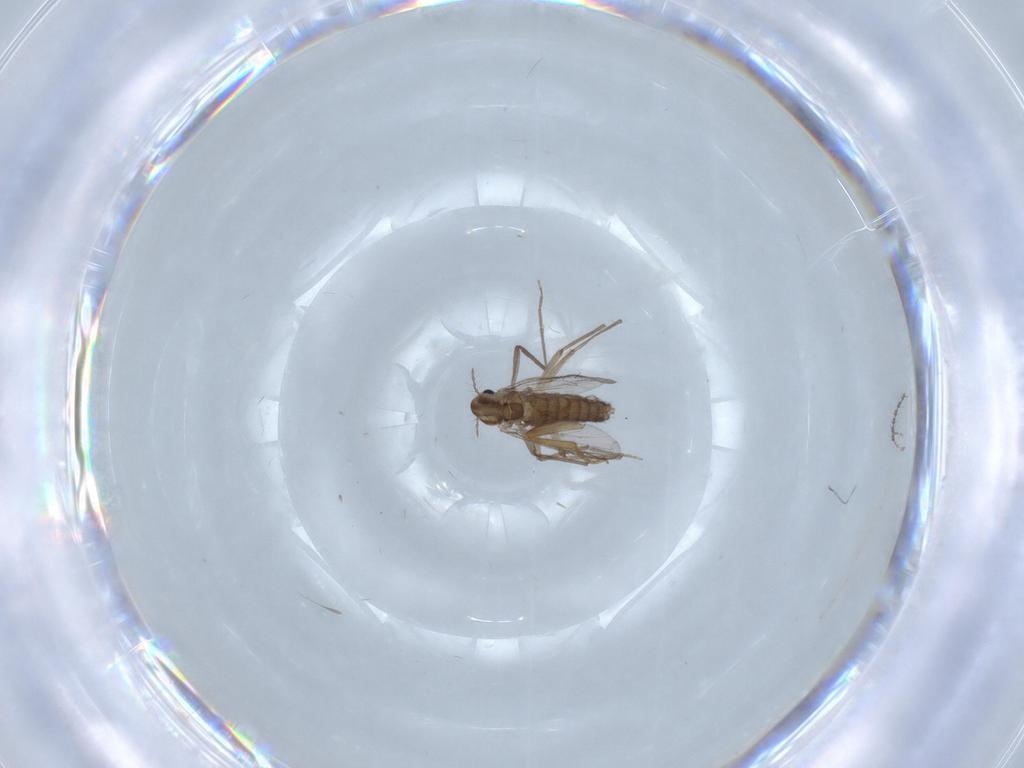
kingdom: Animalia
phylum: Arthropoda
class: Insecta
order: Diptera
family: Chironomidae
